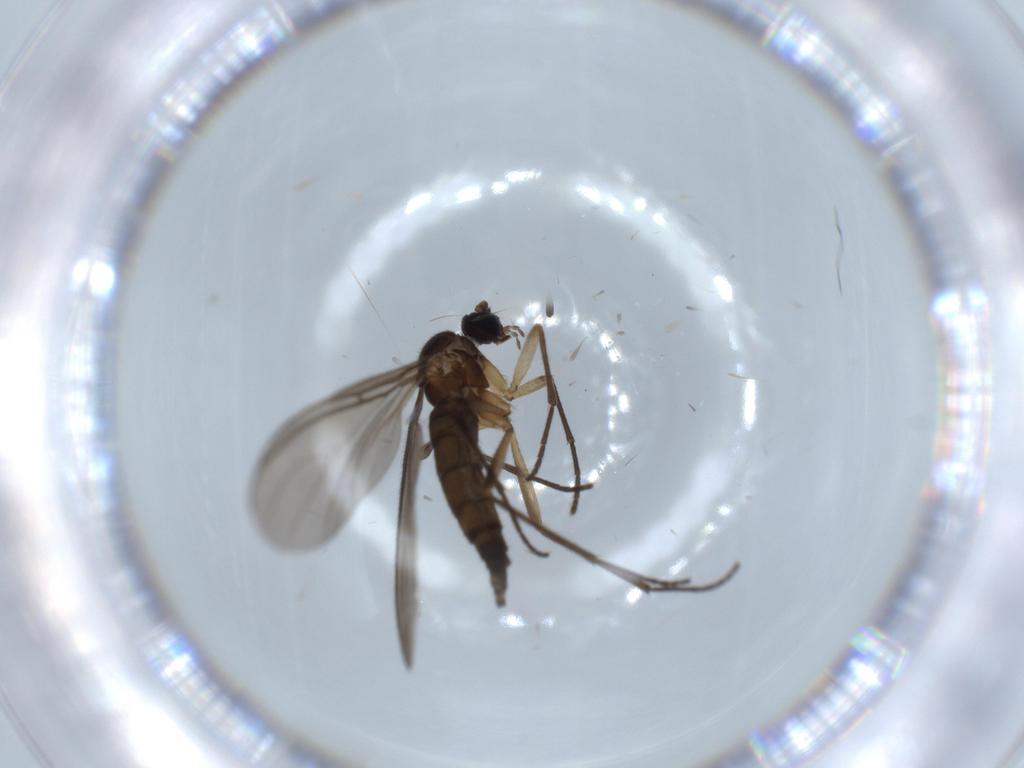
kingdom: Animalia
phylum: Arthropoda
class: Insecta
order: Diptera
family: Sciaridae
